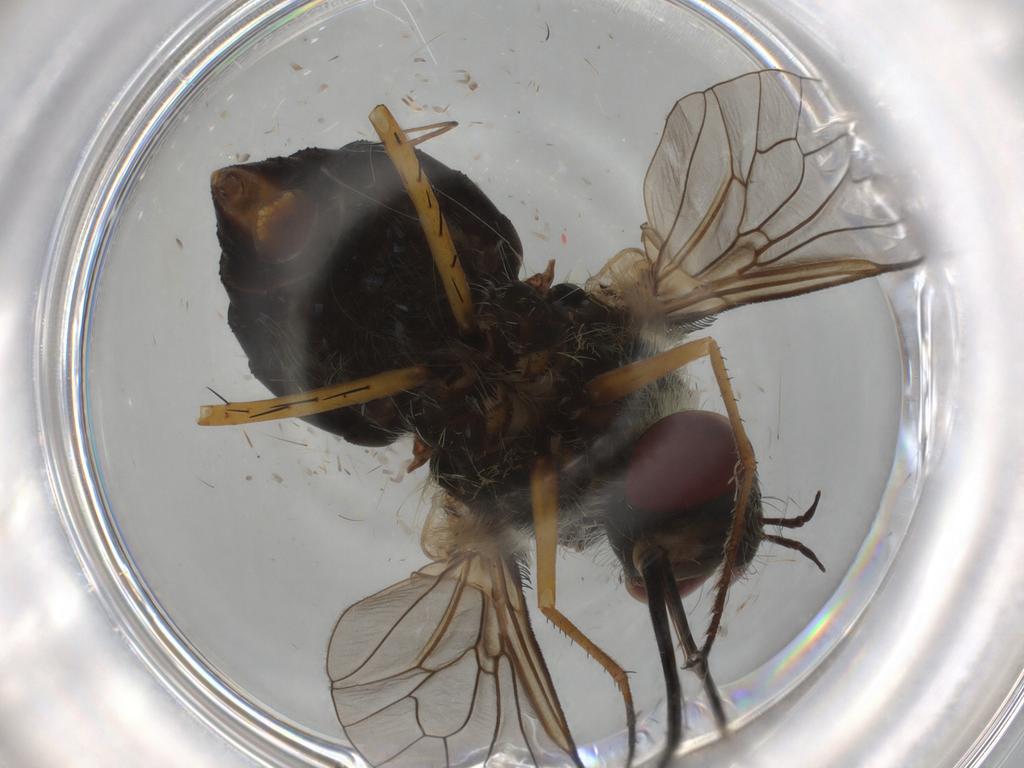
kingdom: Animalia
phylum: Arthropoda
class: Insecta
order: Diptera
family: Bombyliidae
